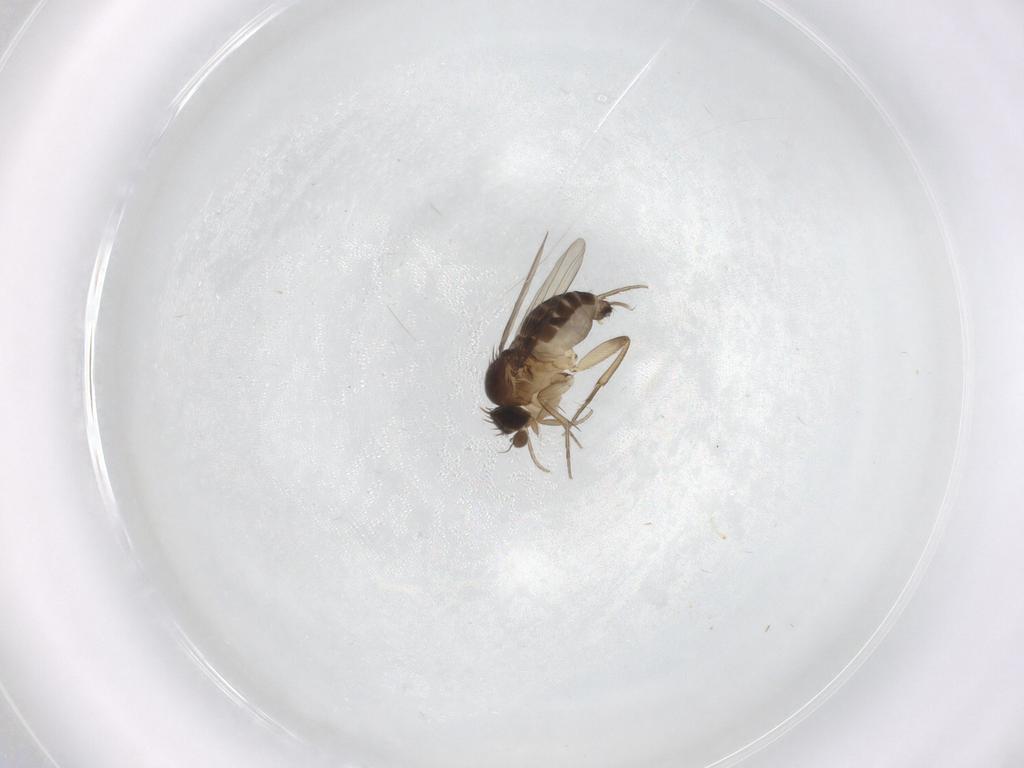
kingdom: Animalia
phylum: Arthropoda
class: Insecta
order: Diptera
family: Phoridae
